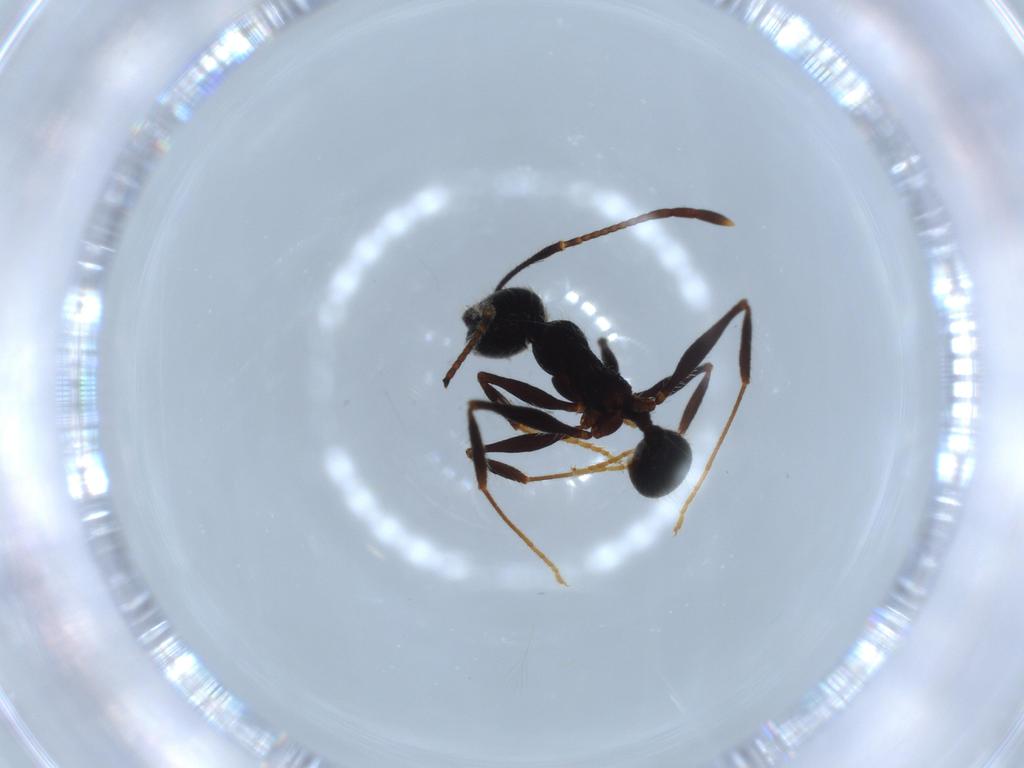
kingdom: Animalia
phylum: Arthropoda
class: Insecta
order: Hymenoptera
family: Formicidae
